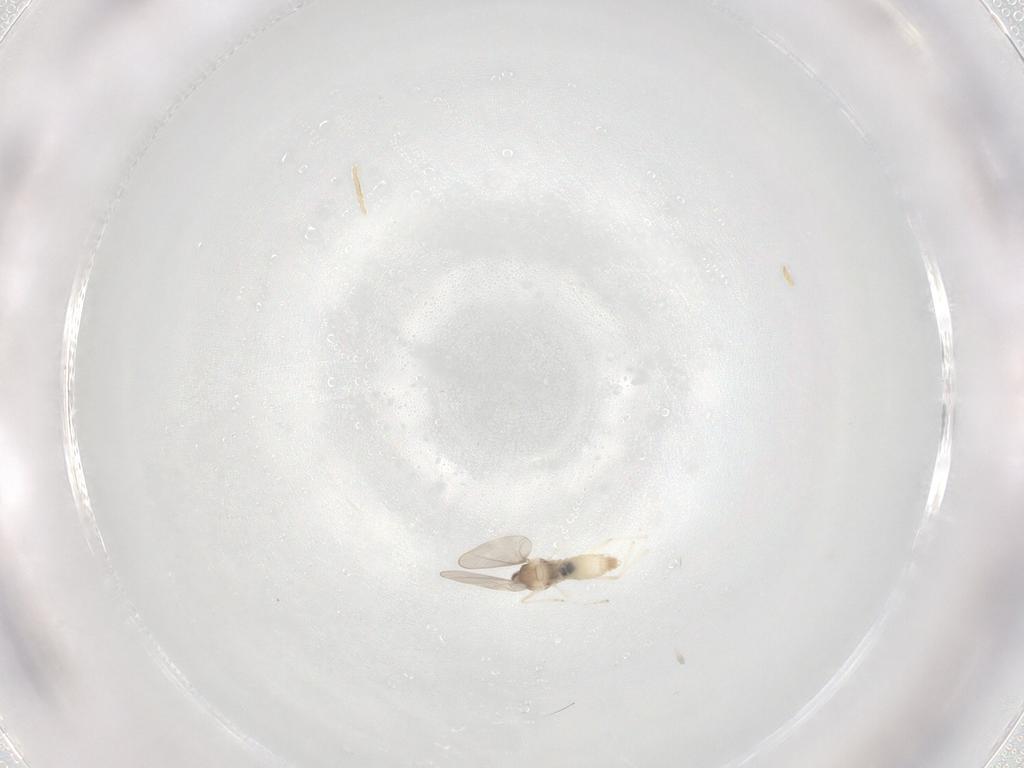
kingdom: Animalia
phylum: Arthropoda
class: Insecta
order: Diptera
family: Cecidomyiidae
